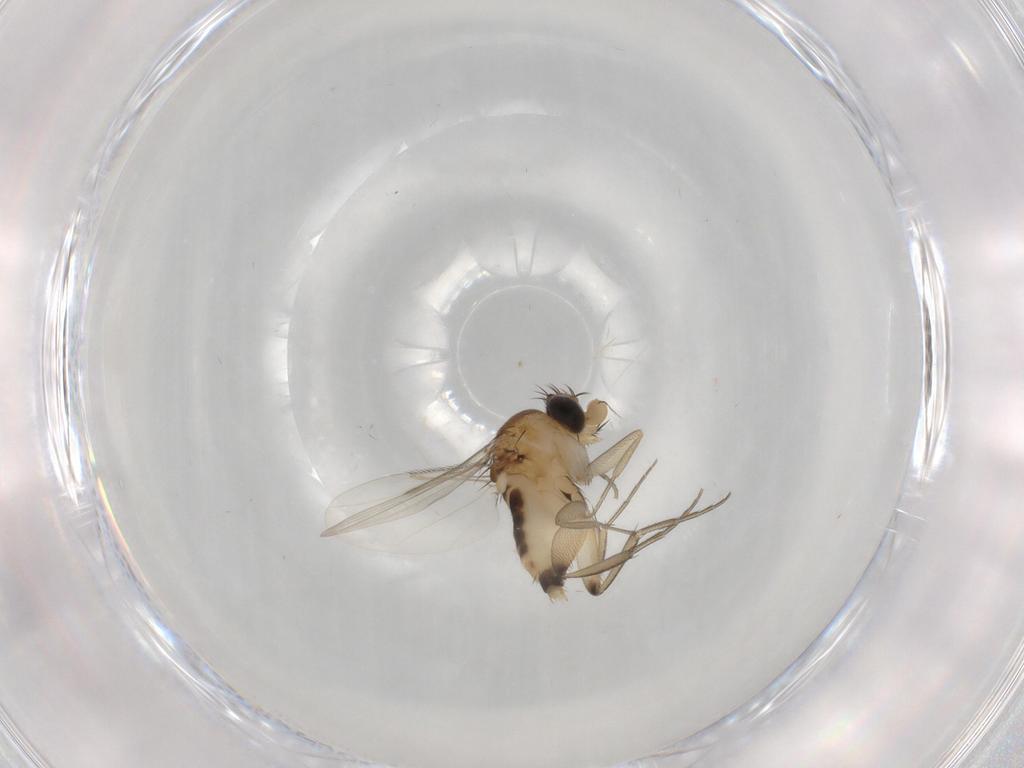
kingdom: Animalia
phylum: Arthropoda
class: Insecta
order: Diptera
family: Phoridae
